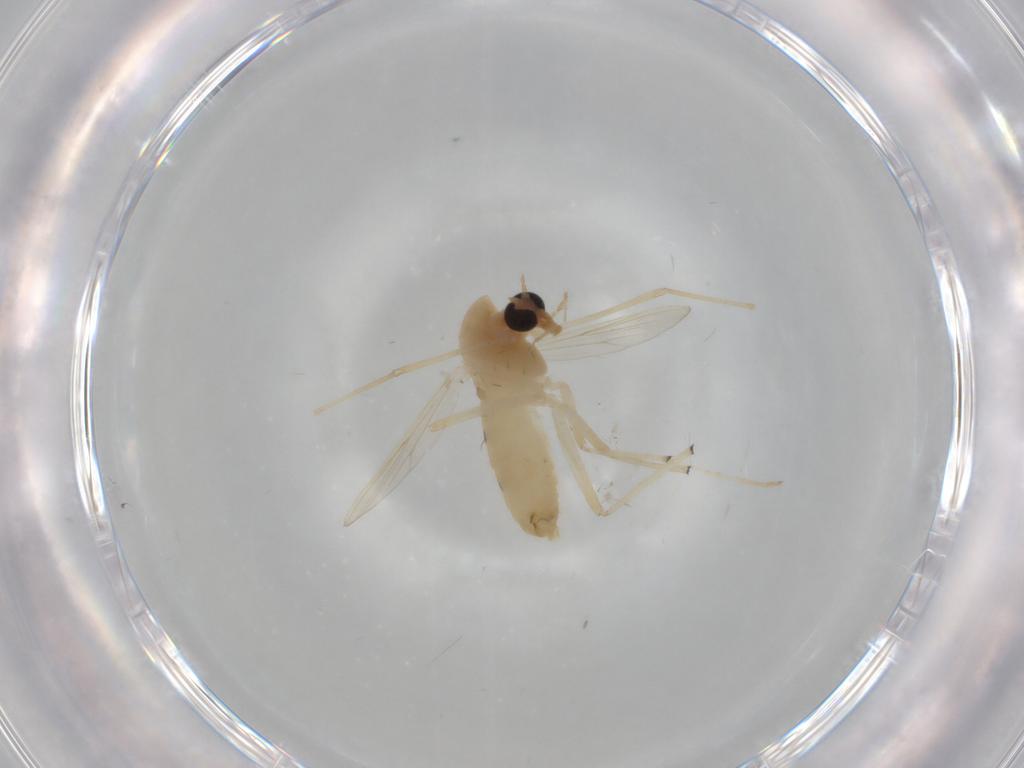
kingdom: Animalia
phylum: Arthropoda
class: Insecta
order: Diptera
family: Chironomidae
